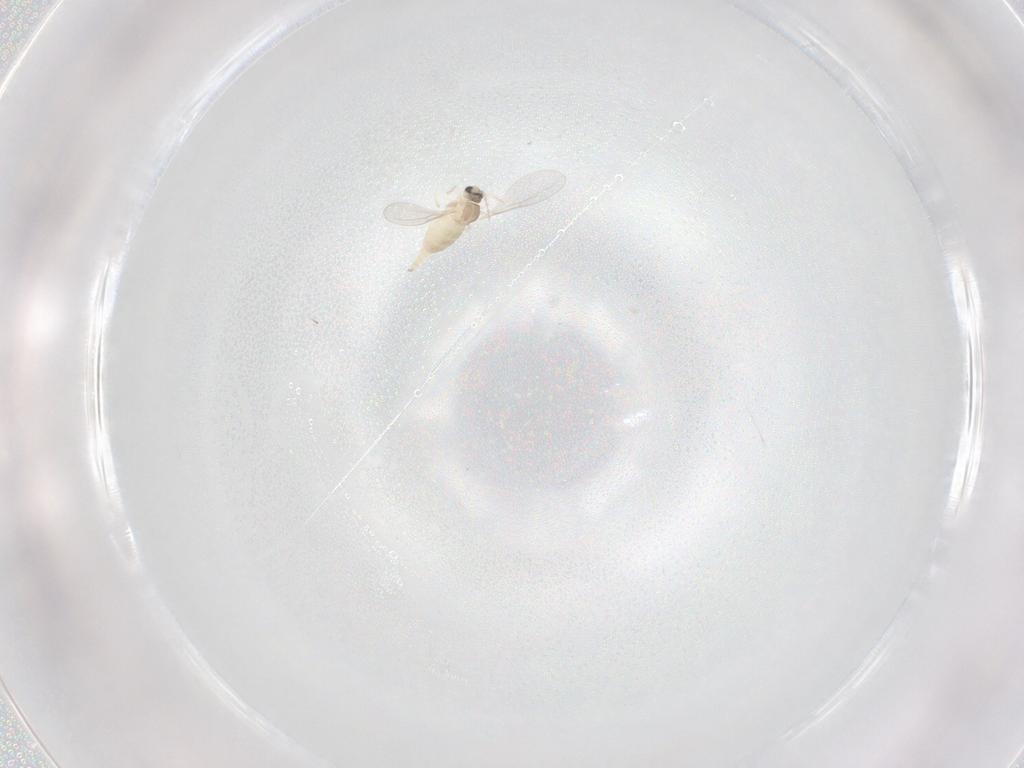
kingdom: Animalia
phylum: Arthropoda
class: Insecta
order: Diptera
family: Cecidomyiidae
